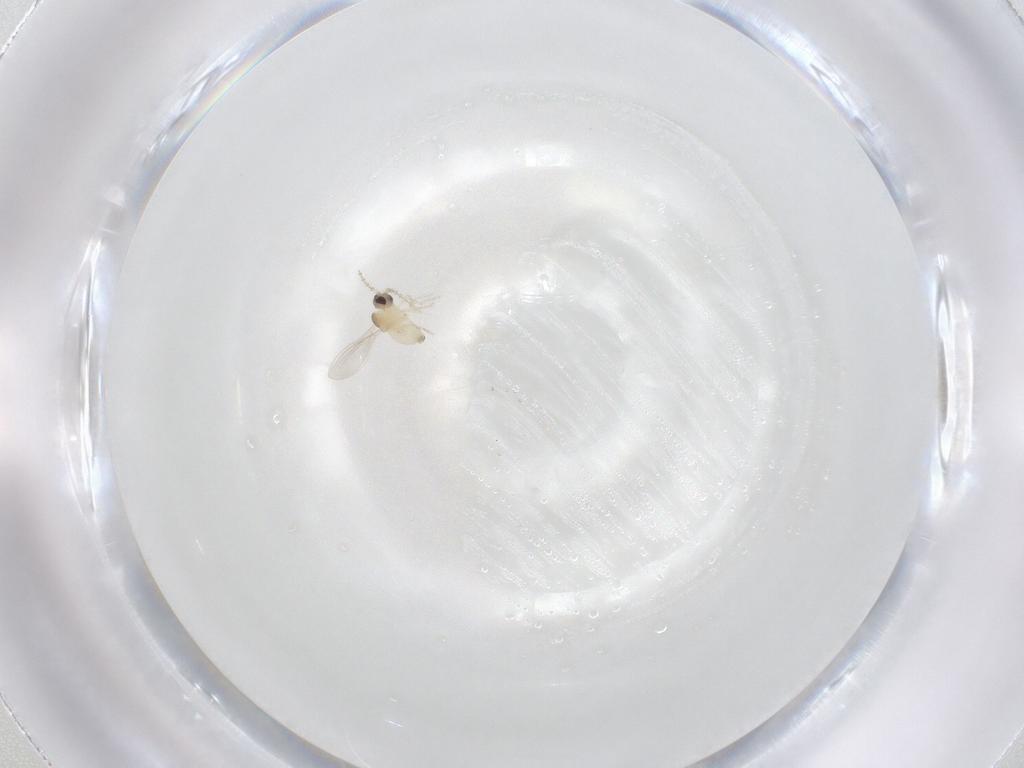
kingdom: Animalia
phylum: Arthropoda
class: Insecta
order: Diptera
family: Cecidomyiidae
